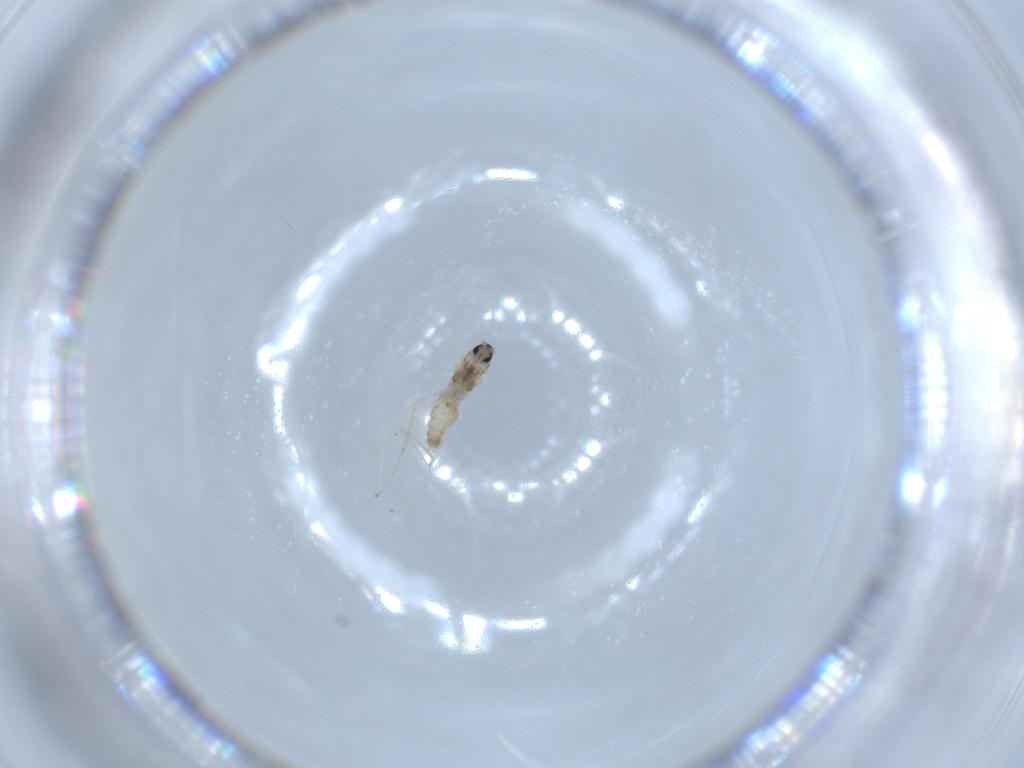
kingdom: Animalia
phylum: Arthropoda
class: Insecta
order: Diptera
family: Cecidomyiidae
